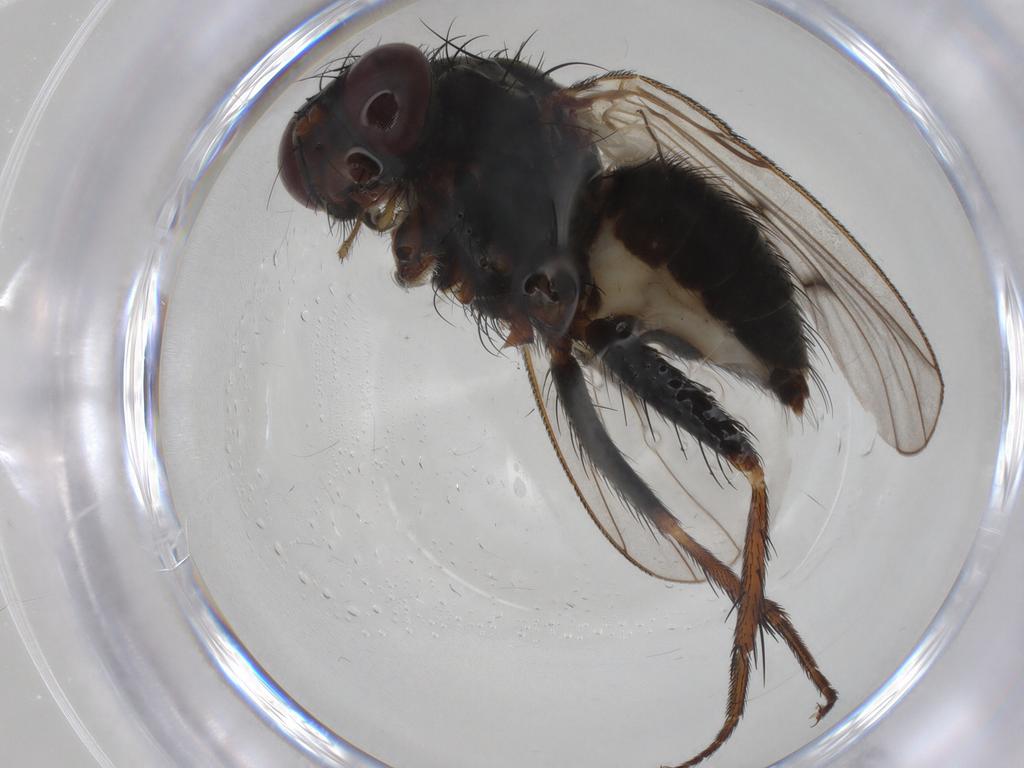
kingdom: Animalia
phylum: Arthropoda
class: Insecta
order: Diptera
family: Muscidae
